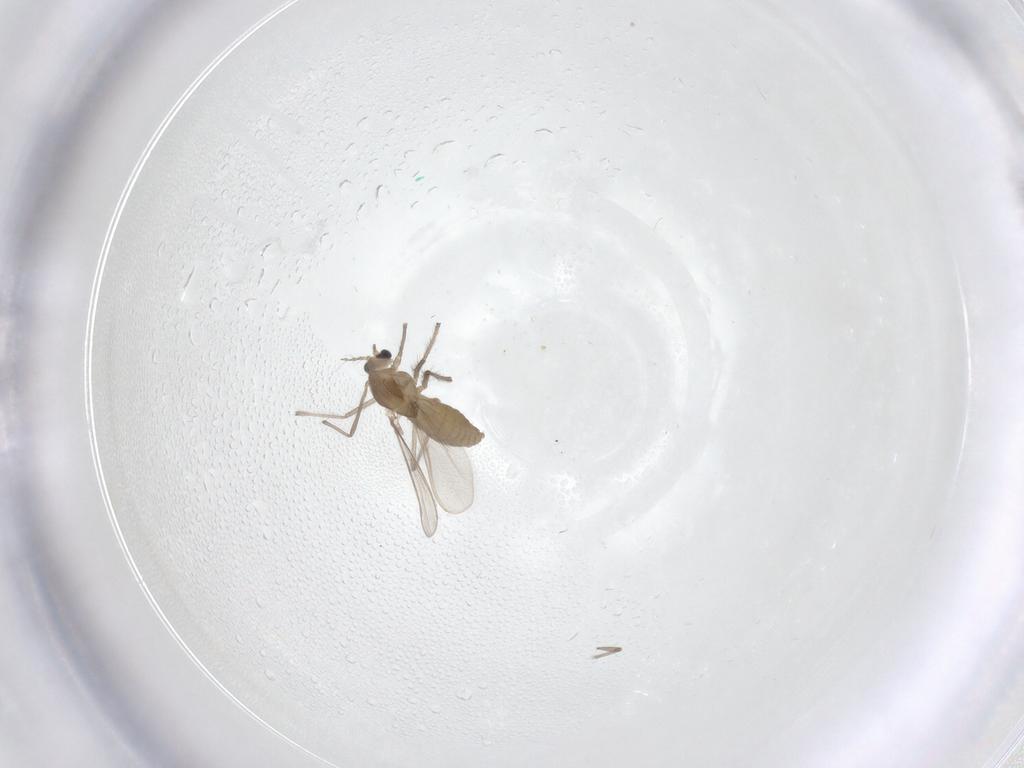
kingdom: Animalia
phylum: Arthropoda
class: Insecta
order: Diptera
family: Chironomidae
